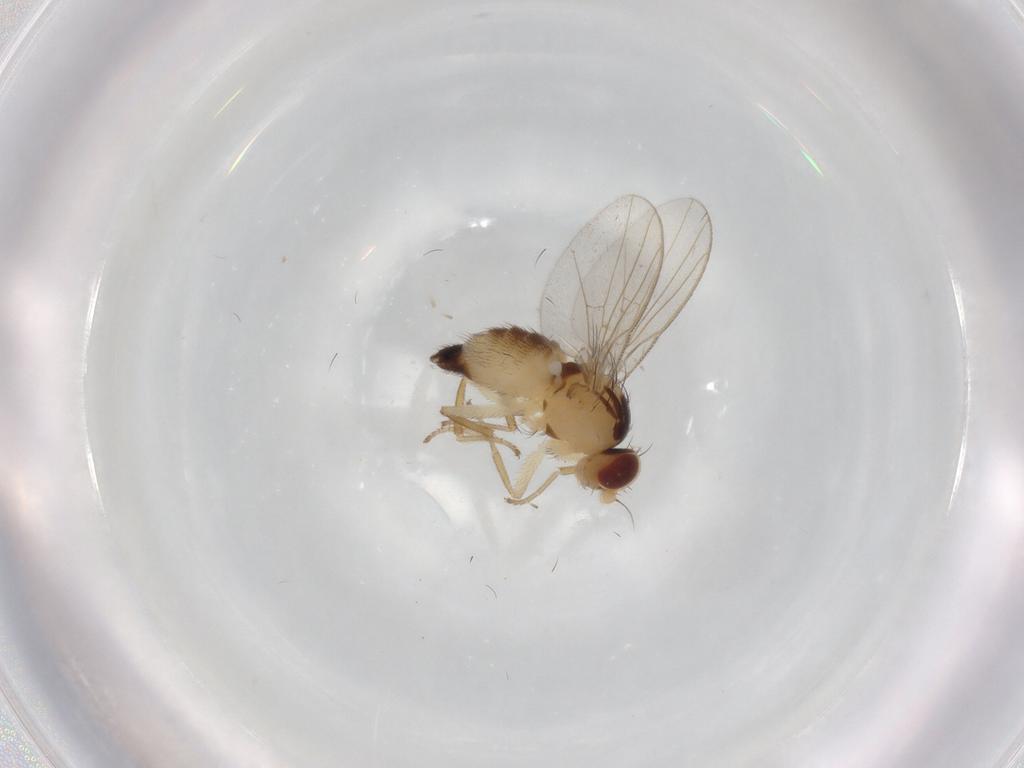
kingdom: Animalia
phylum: Arthropoda
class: Insecta
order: Diptera
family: Agromyzidae
